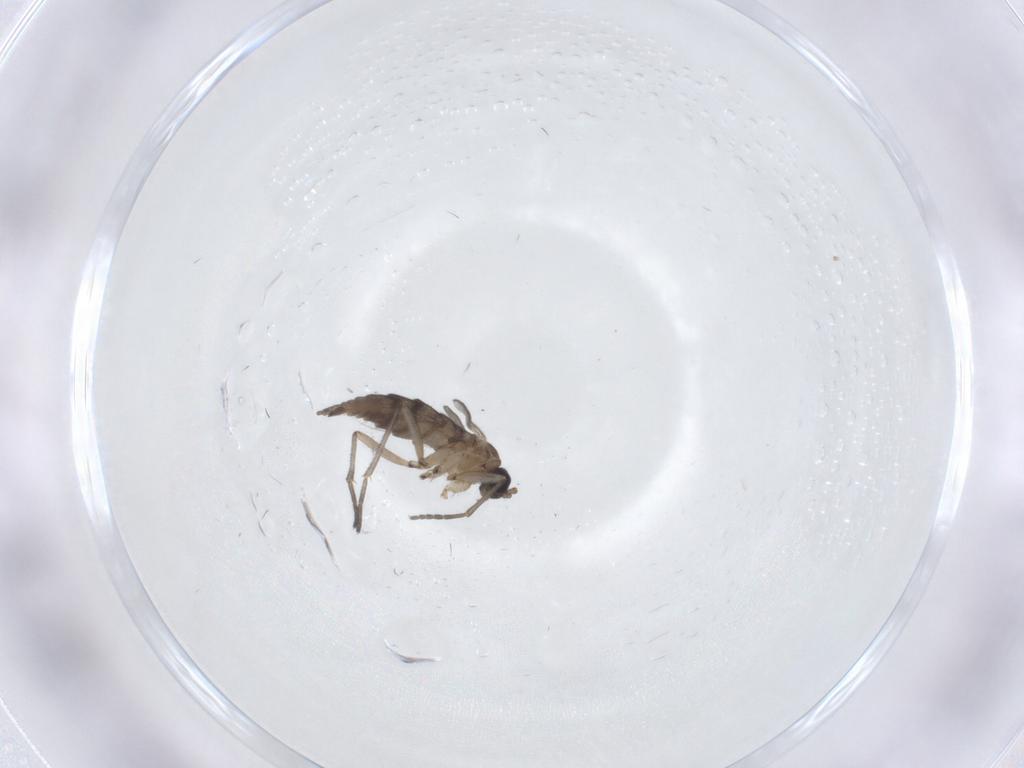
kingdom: Animalia
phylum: Arthropoda
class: Insecta
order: Diptera
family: Sciaridae
